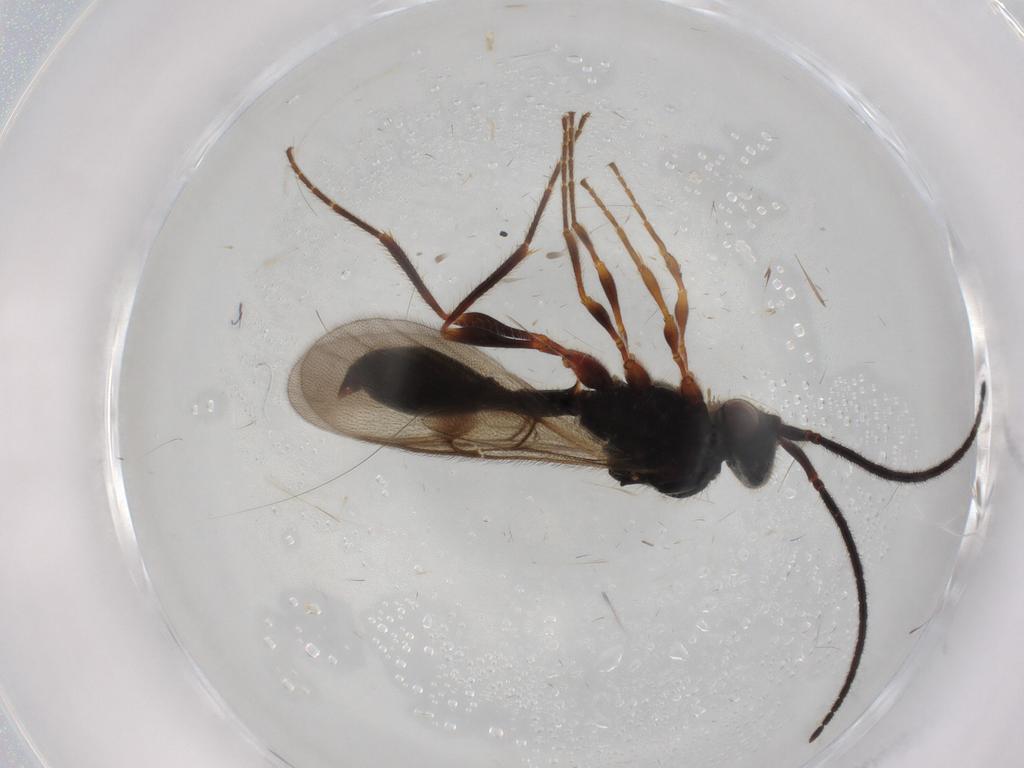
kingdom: Animalia
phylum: Arthropoda
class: Insecta
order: Hymenoptera
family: Diapriidae
